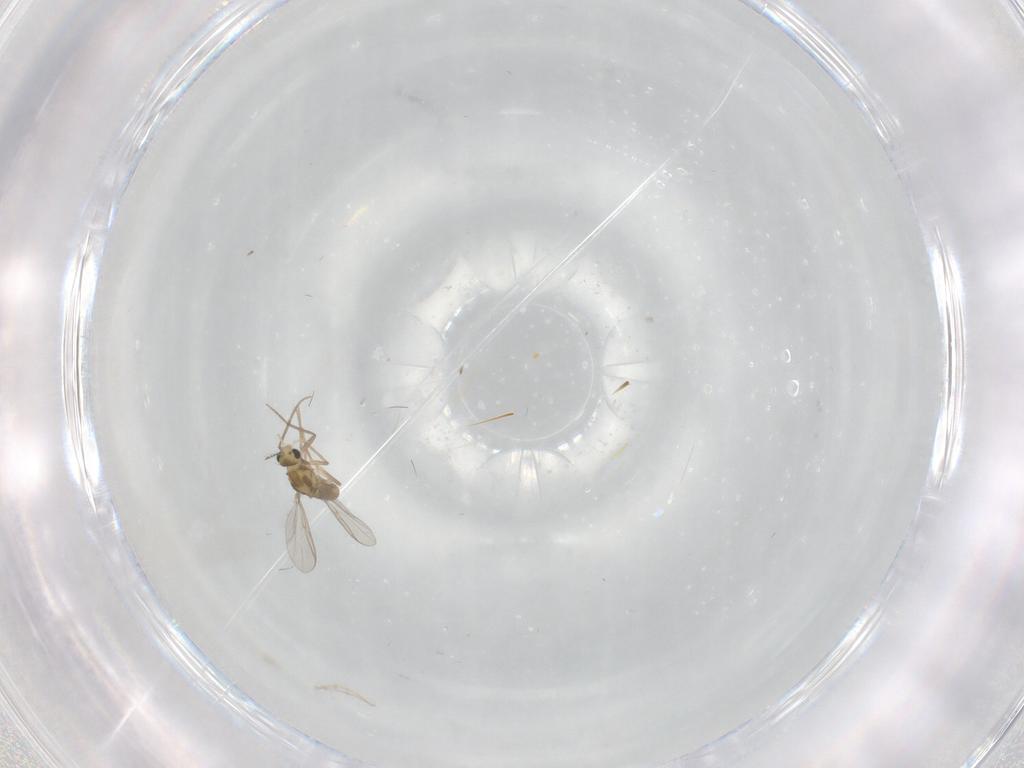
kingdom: Animalia
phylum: Arthropoda
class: Insecta
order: Diptera
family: Chironomidae
